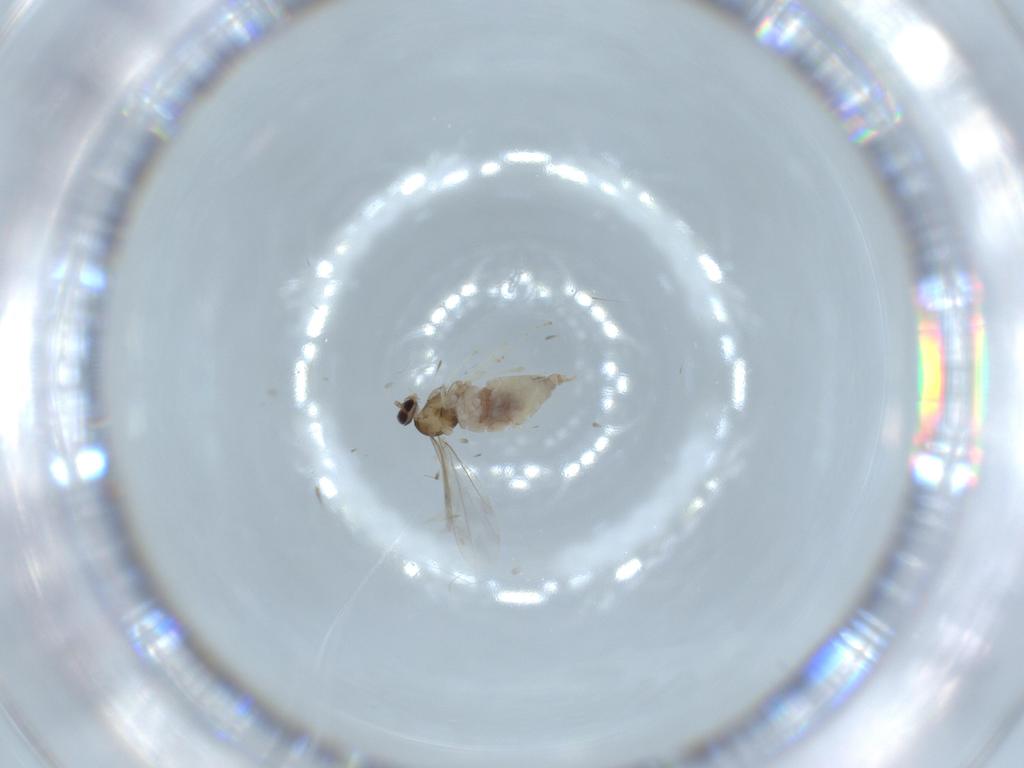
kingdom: Animalia
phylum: Arthropoda
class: Insecta
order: Diptera
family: Cecidomyiidae
